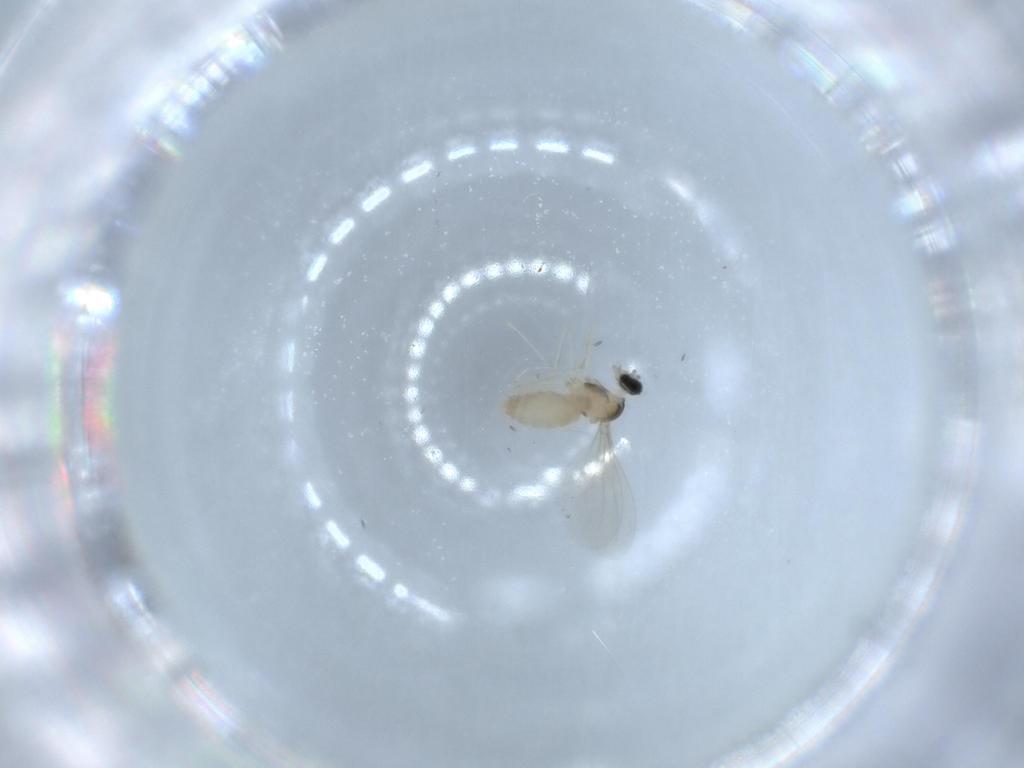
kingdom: Animalia
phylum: Arthropoda
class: Insecta
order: Diptera
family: Cecidomyiidae
